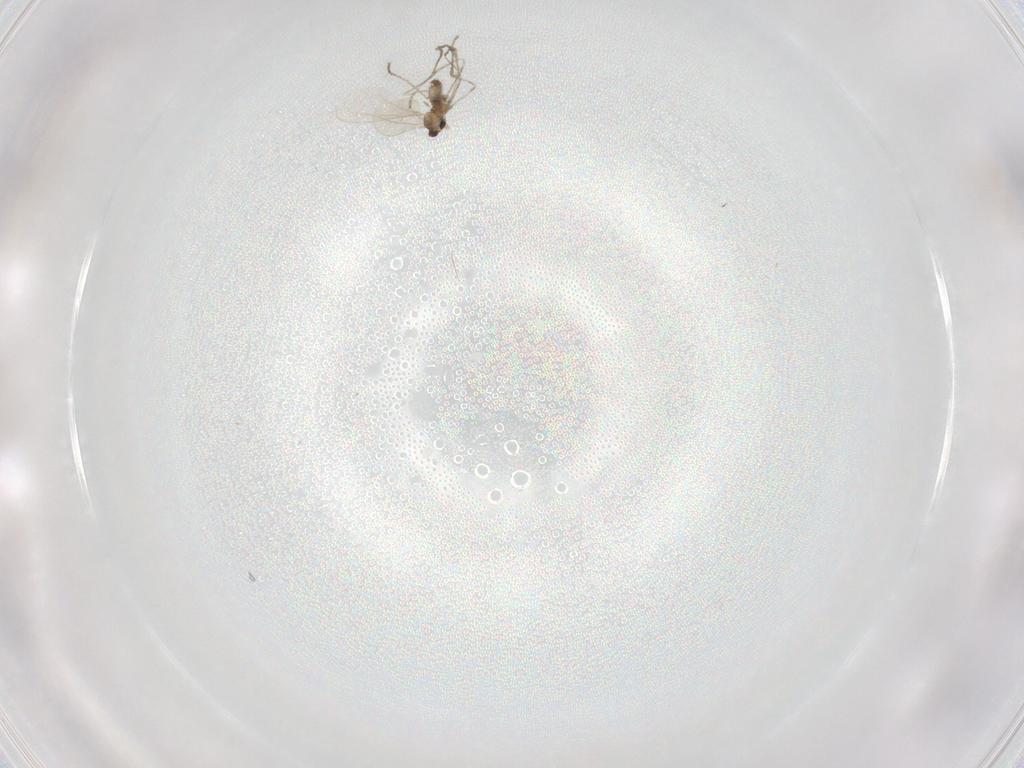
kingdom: Animalia
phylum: Arthropoda
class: Insecta
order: Diptera
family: Cecidomyiidae
